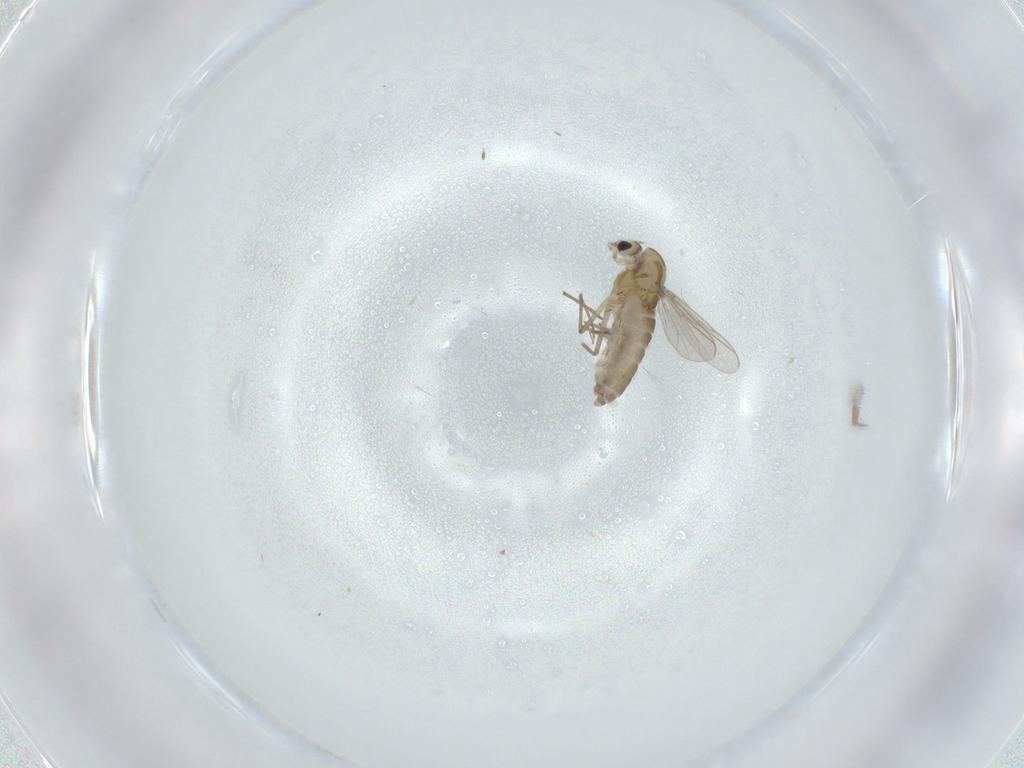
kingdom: Animalia
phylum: Arthropoda
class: Insecta
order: Diptera
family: Chironomidae
